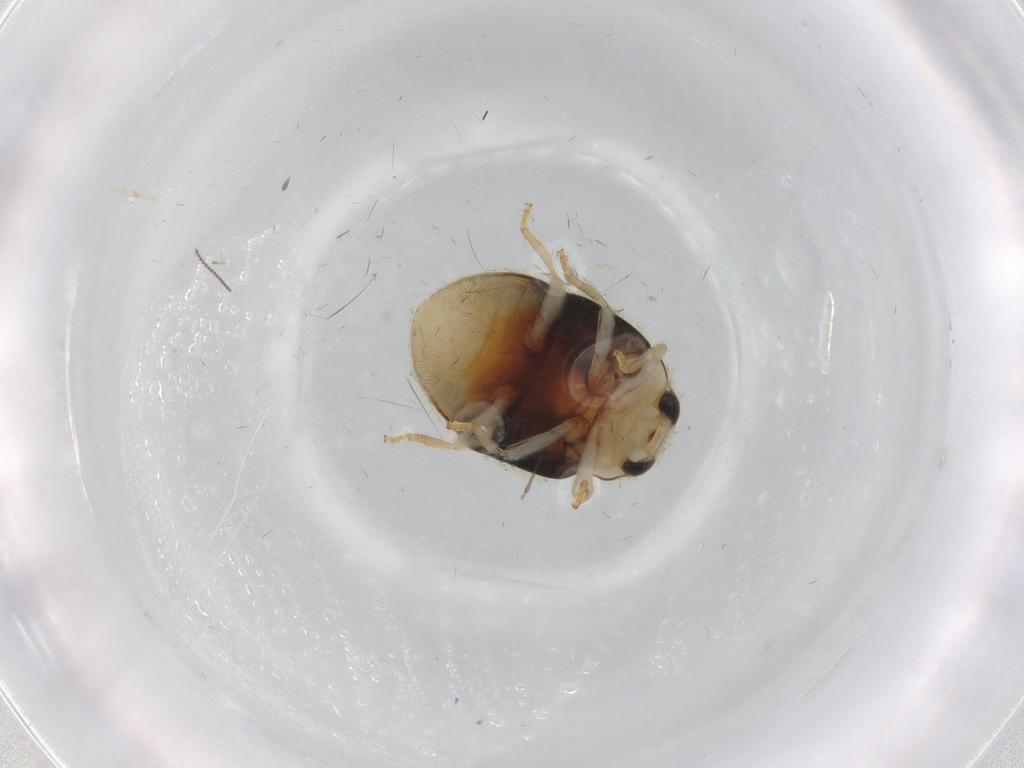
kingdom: Animalia
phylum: Arthropoda
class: Insecta
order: Coleoptera
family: Coccinellidae
